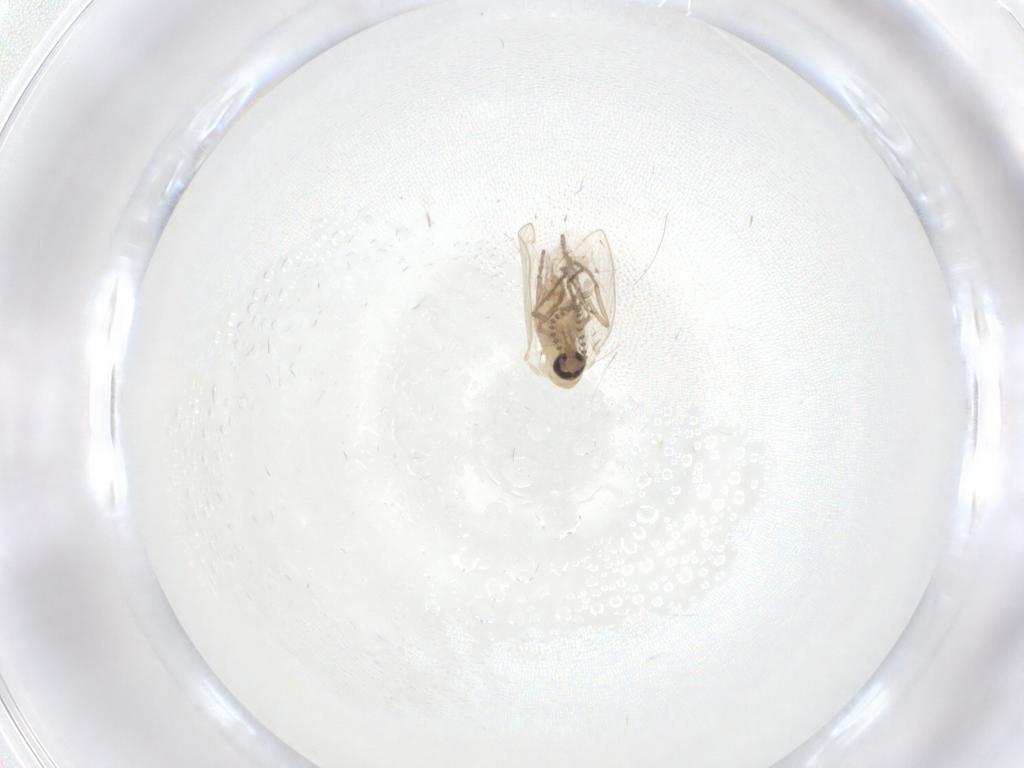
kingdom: Animalia
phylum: Arthropoda
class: Insecta
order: Diptera
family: Psychodidae
